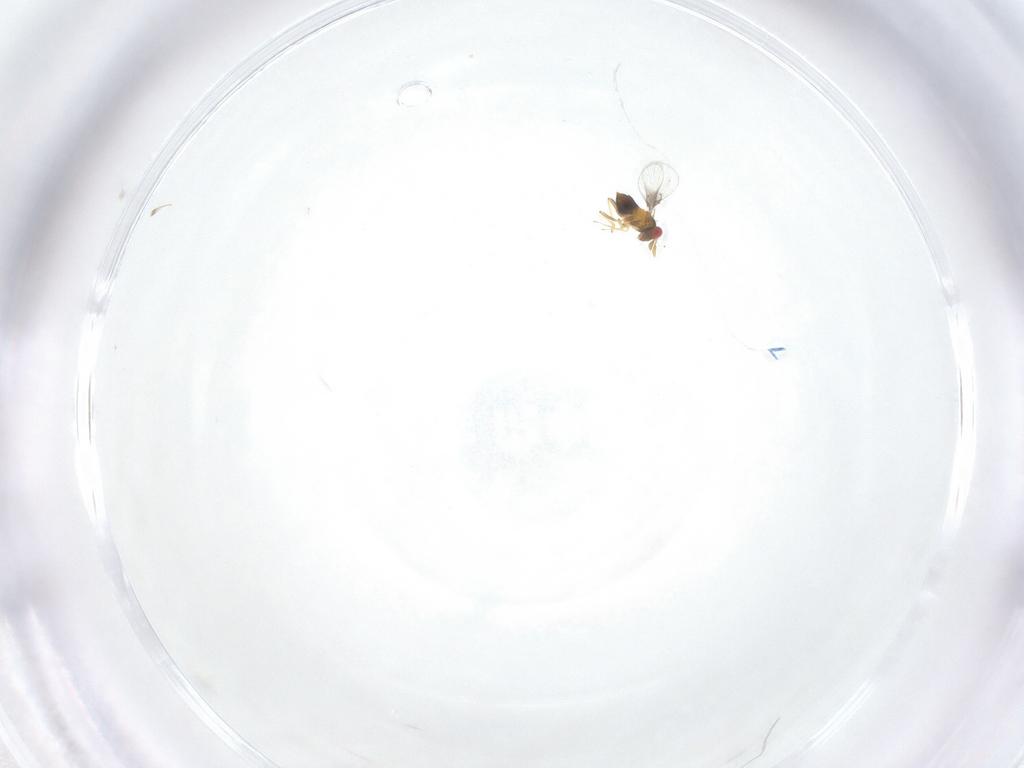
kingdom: Animalia
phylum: Arthropoda
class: Insecta
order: Hymenoptera
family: Trichogrammatidae
